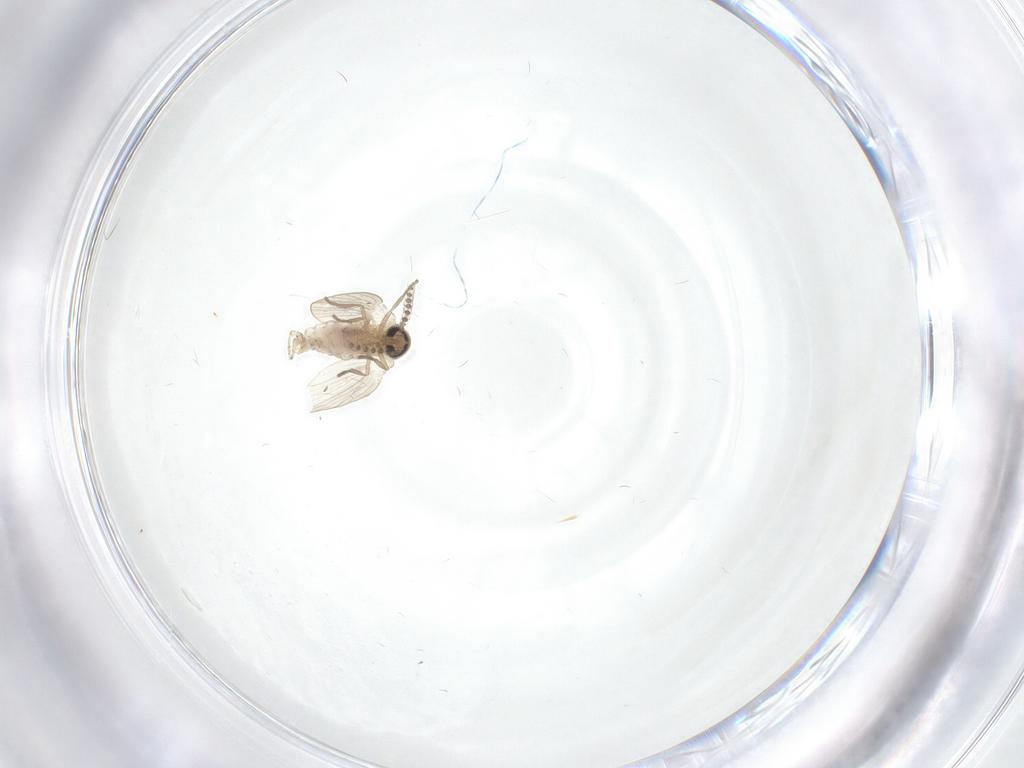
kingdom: Animalia
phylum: Arthropoda
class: Insecta
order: Diptera
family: Psychodidae
